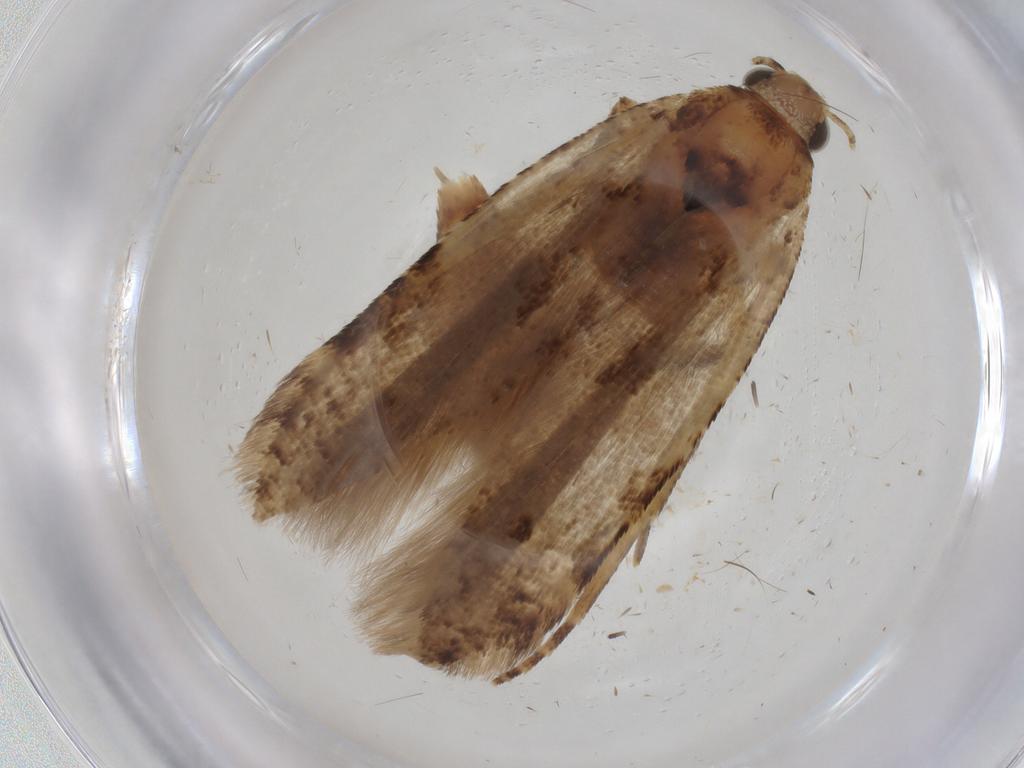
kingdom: Animalia
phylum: Arthropoda
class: Insecta
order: Lepidoptera
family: Gelechiidae
